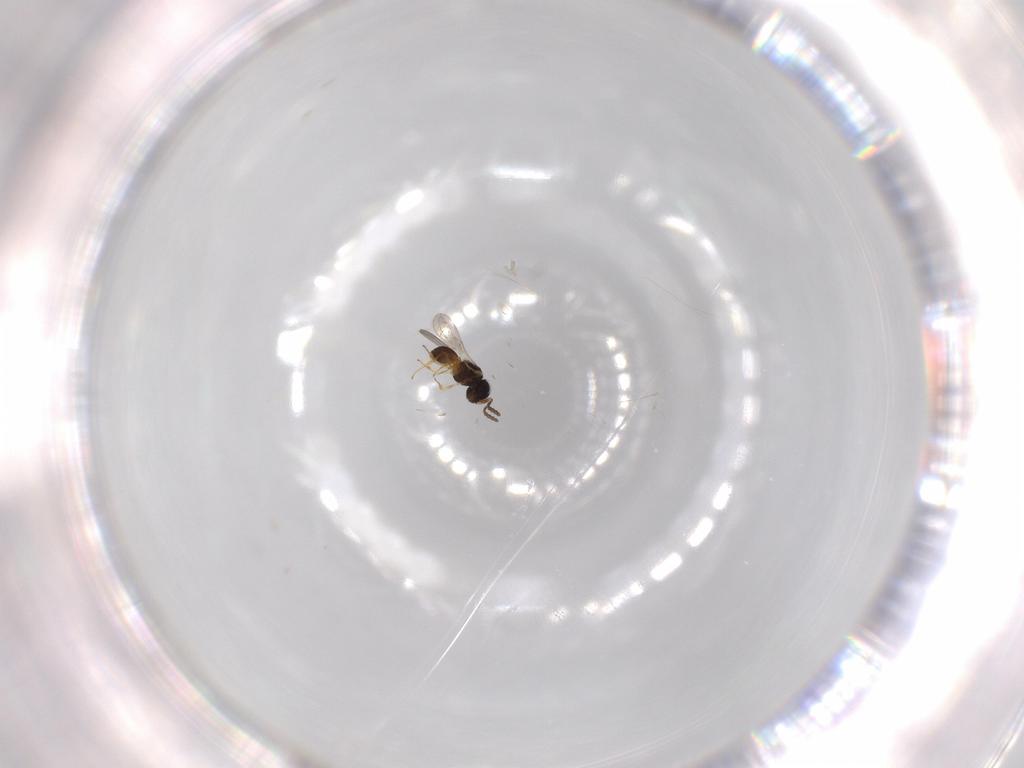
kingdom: Animalia
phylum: Arthropoda
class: Insecta
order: Hymenoptera
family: Scelionidae
